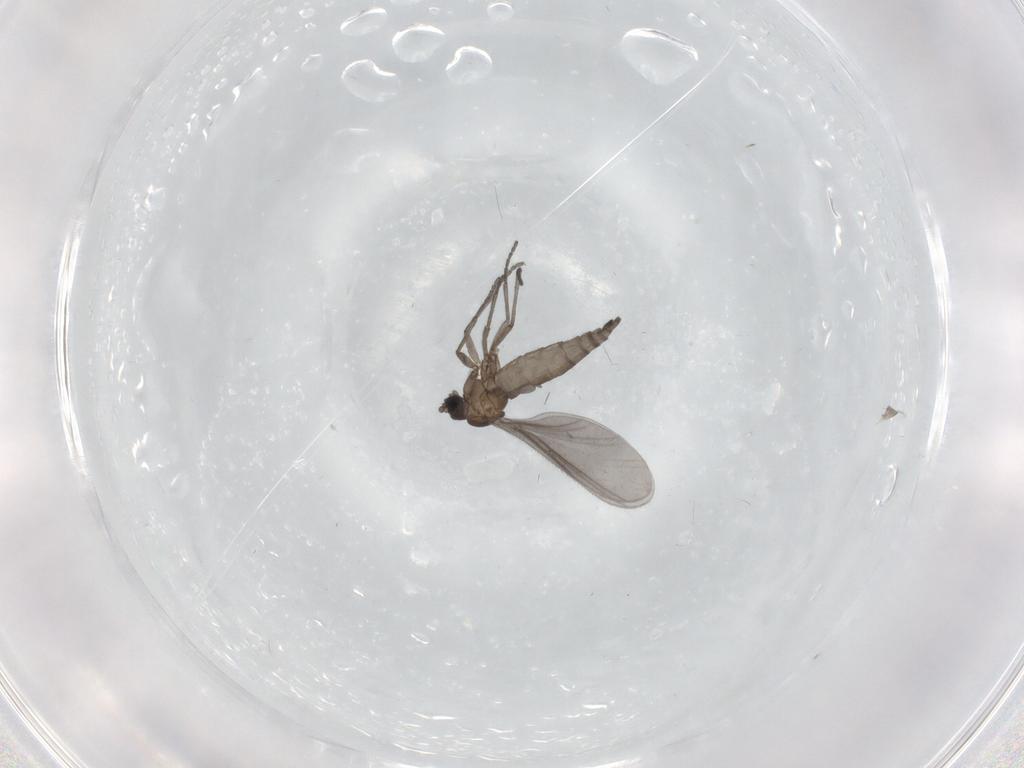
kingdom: Animalia
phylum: Arthropoda
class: Insecta
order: Diptera
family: Sciaridae
